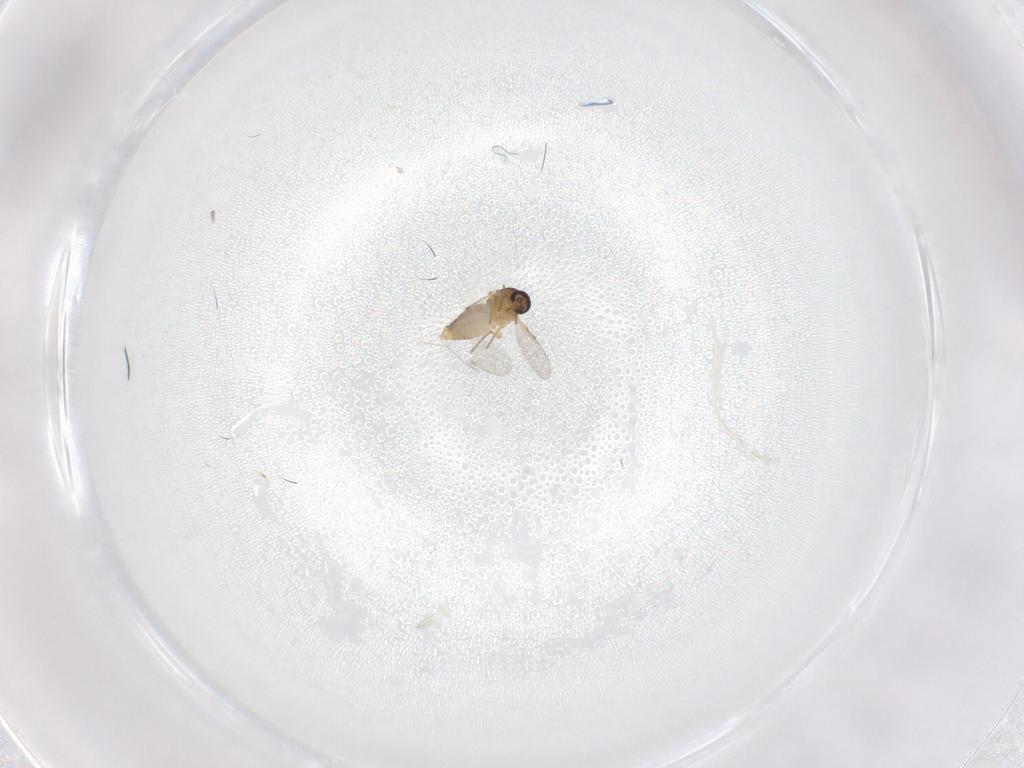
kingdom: Animalia
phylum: Arthropoda
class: Insecta
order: Diptera
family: Ceratopogonidae
